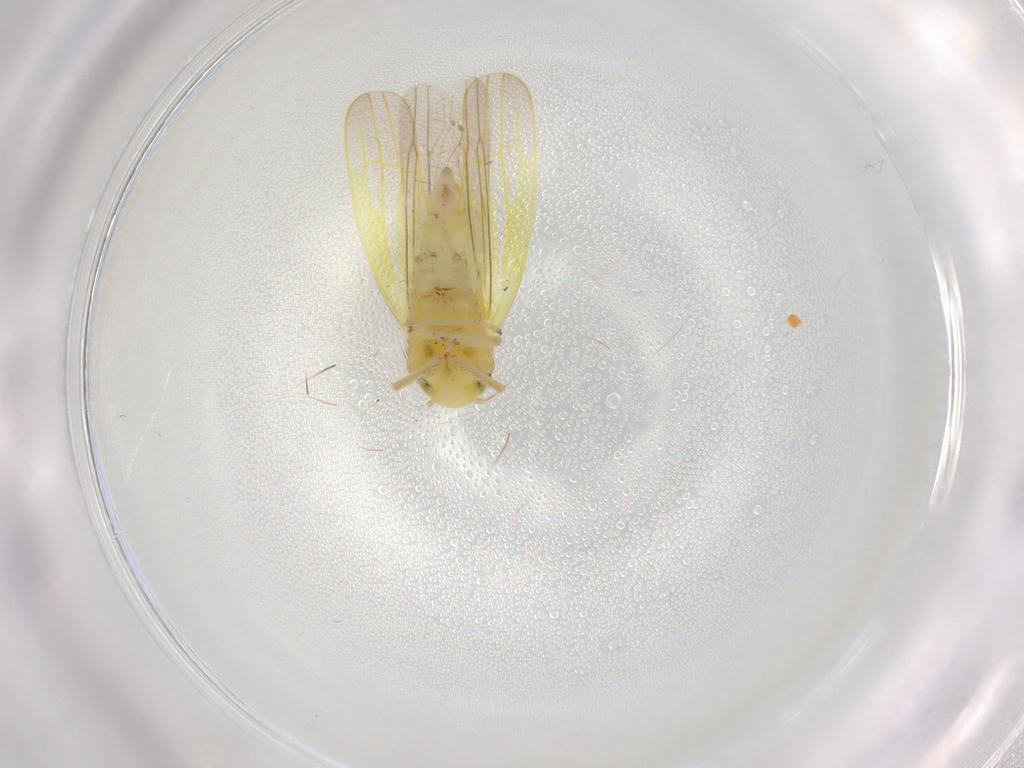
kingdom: Animalia
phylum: Arthropoda
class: Insecta
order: Hemiptera
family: Cicadellidae
